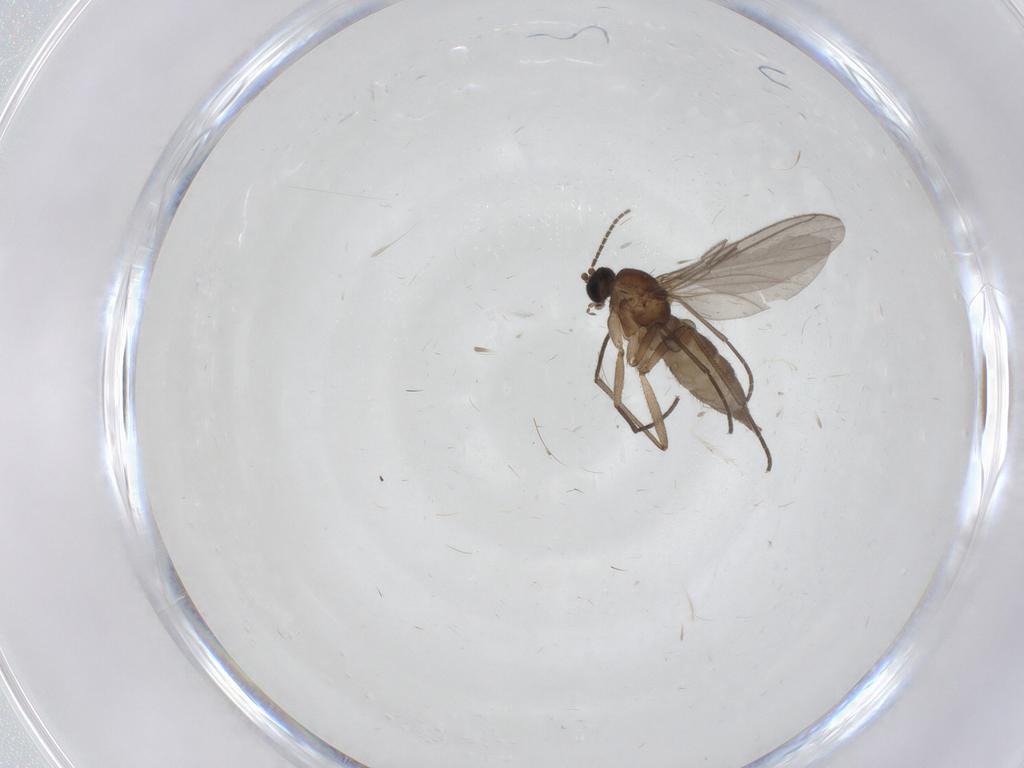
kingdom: Animalia
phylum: Arthropoda
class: Insecta
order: Diptera
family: Sciaridae
